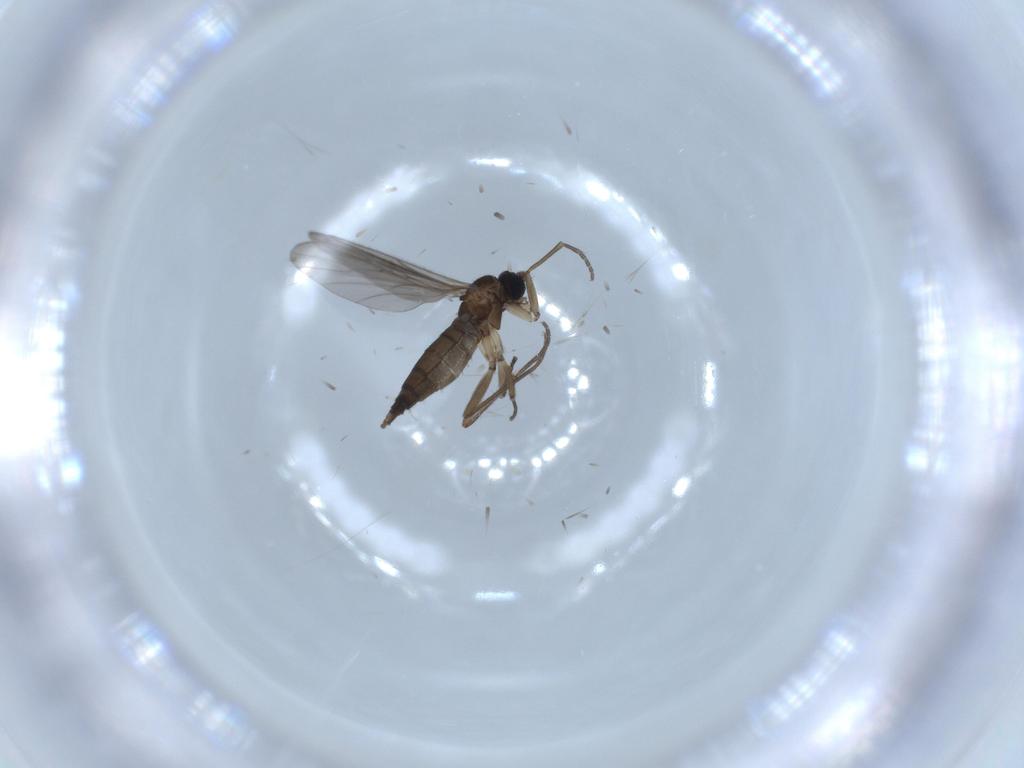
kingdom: Animalia
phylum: Arthropoda
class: Insecta
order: Diptera
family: Sciaridae
